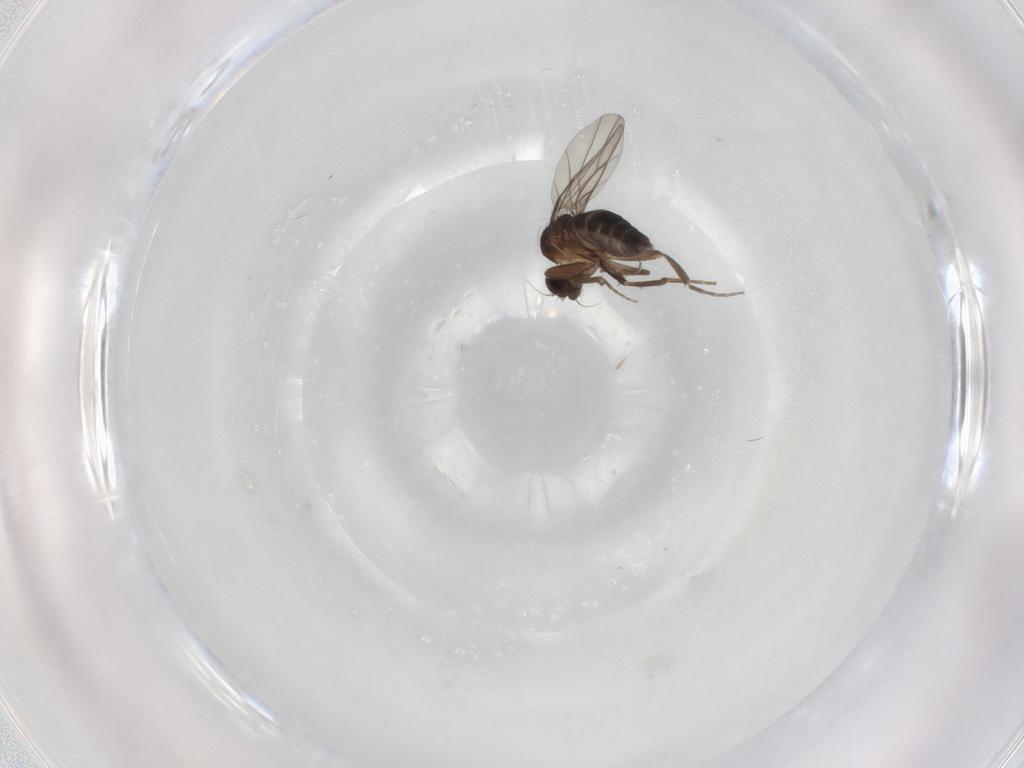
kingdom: Animalia
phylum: Arthropoda
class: Insecta
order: Diptera
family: Phoridae
